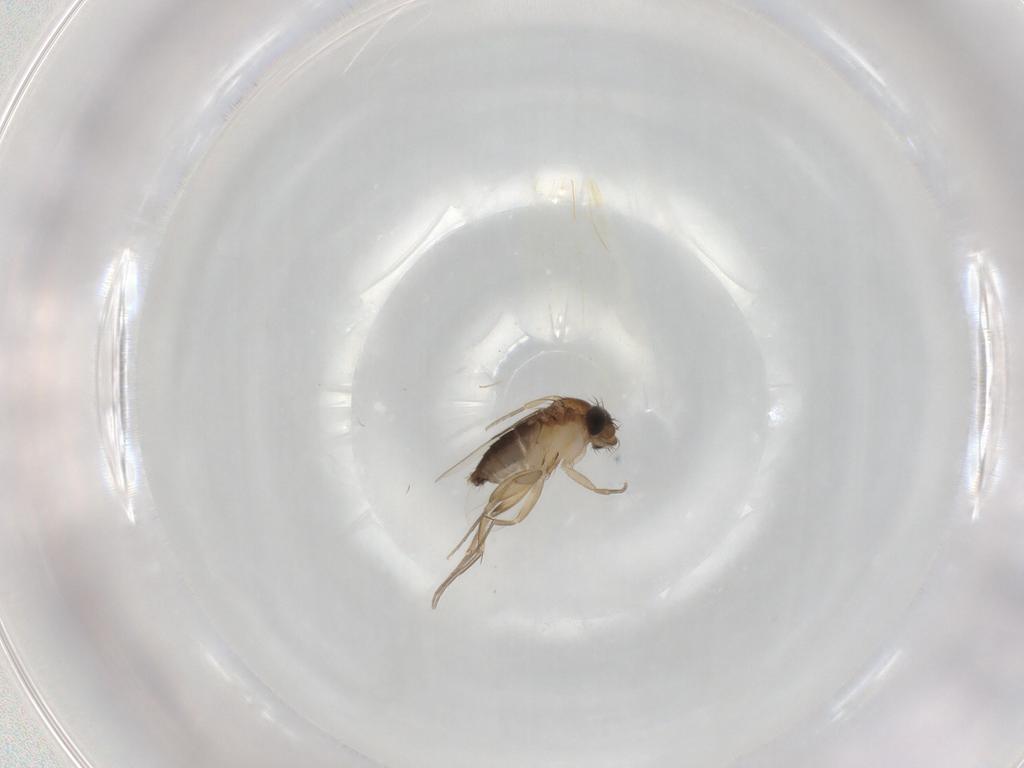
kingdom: Animalia
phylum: Arthropoda
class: Insecta
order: Diptera
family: Phoridae
